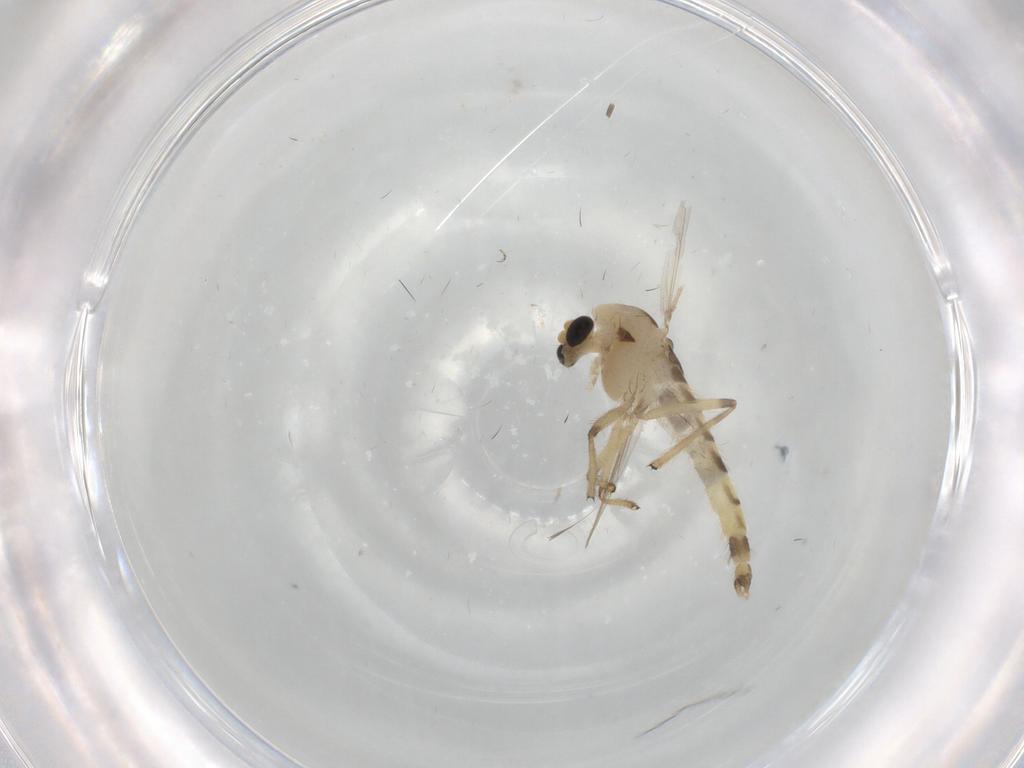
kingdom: Animalia
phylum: Arthropoda
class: Insecta
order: Diptera
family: Chironomidae
